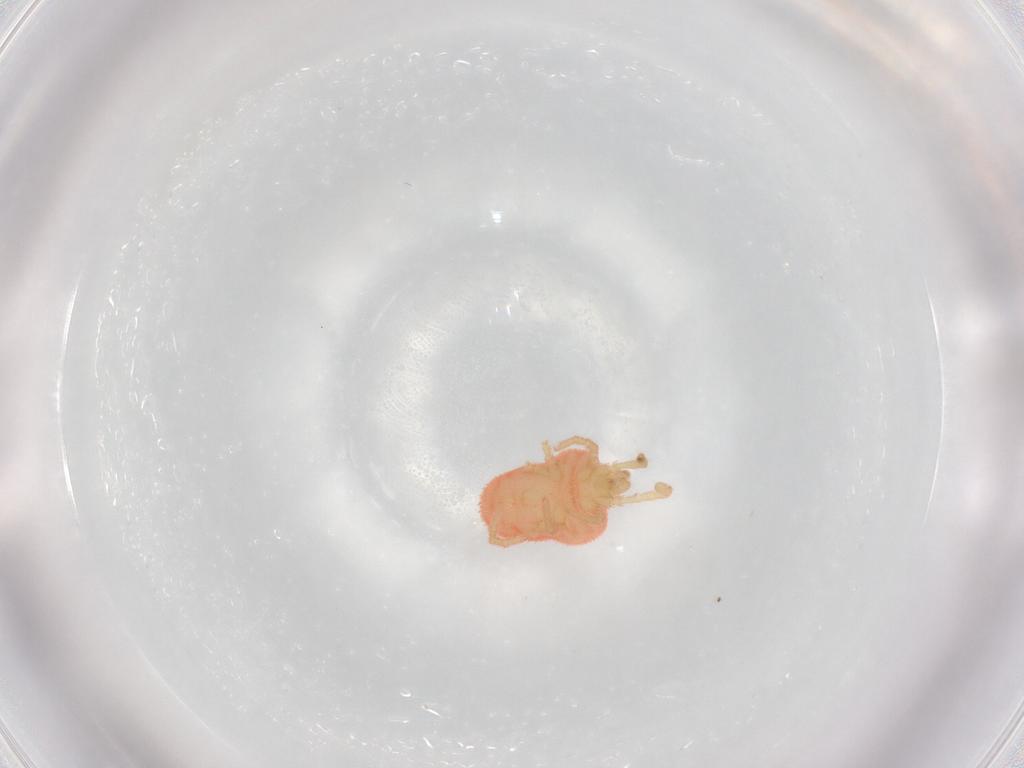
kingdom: Animalia
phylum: Arthropoda
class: Arachnida
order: Trombidiformes
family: Trombidiidae
